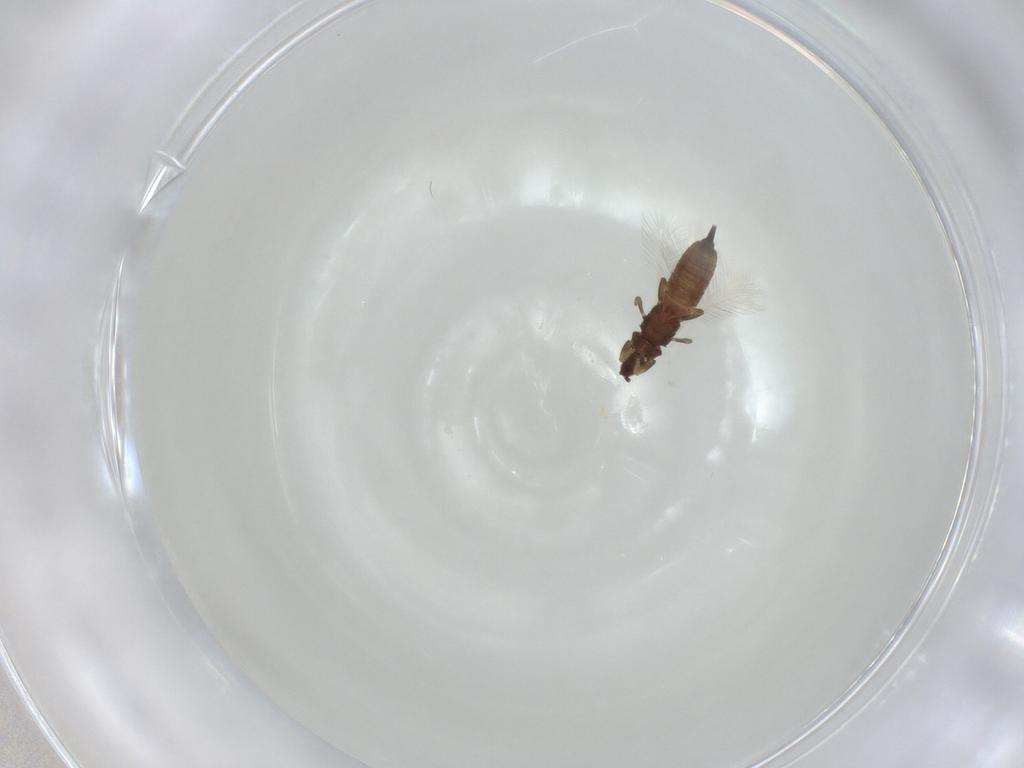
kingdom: Animalia
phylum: Arthropoda
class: Insecta
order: Thysanoptera
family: Phlaeothripidae
